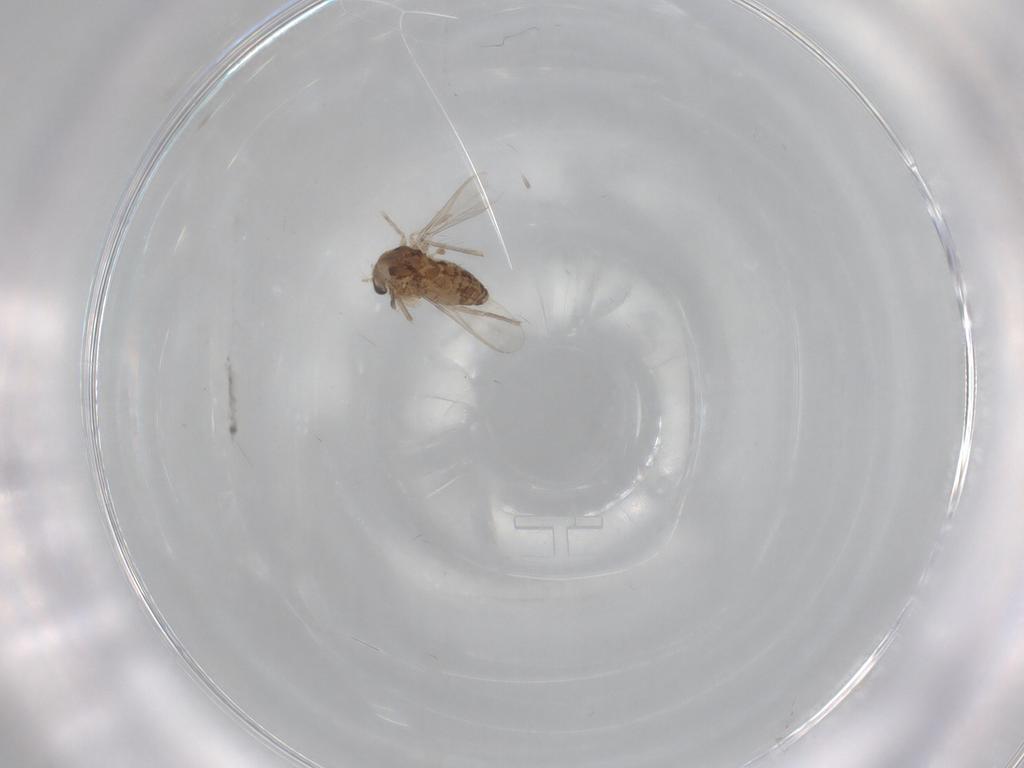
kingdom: Animalia
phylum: Arthropoda
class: Insecta
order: Diptera
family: Chironomidae
